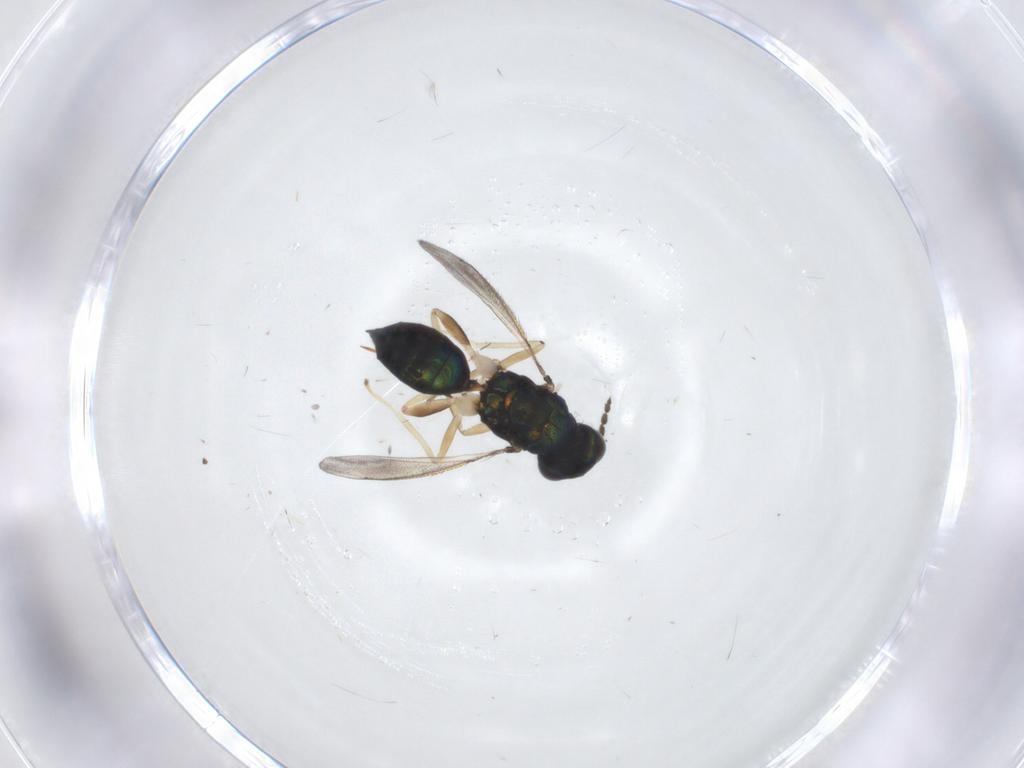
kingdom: Animalia
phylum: Arthropoda
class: Insecta
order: Hymenoptera
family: Eulophidae
